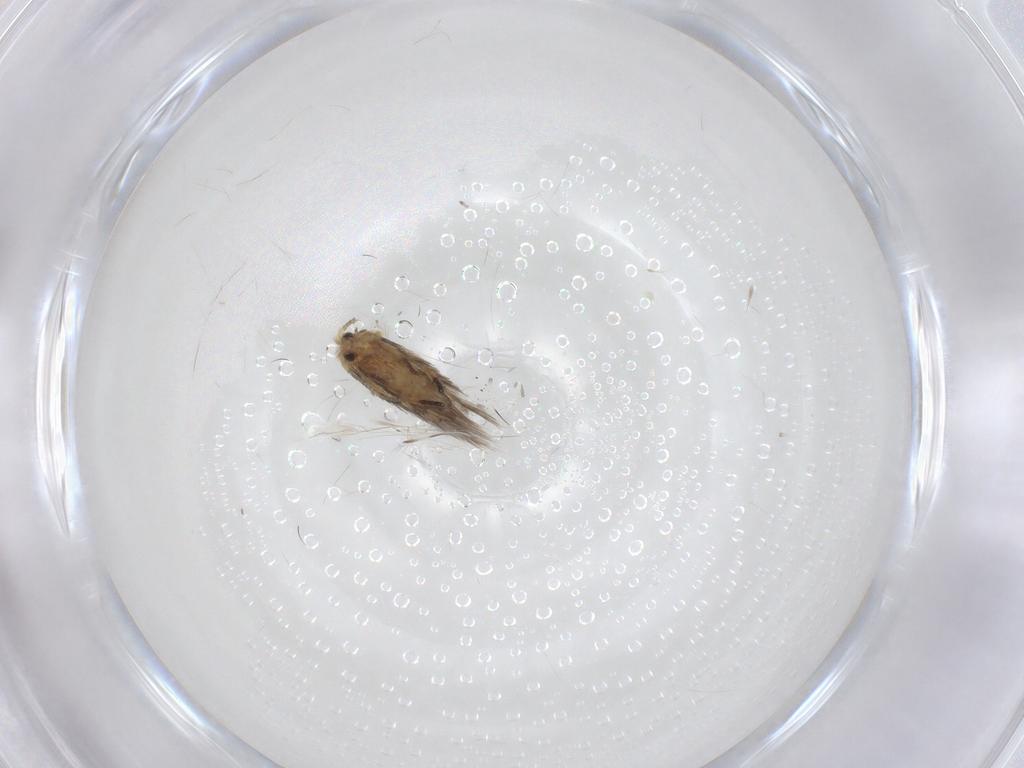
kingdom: Animalia
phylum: Arthropoda
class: Insecta
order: Lepidoptera
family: Nepticulidae
